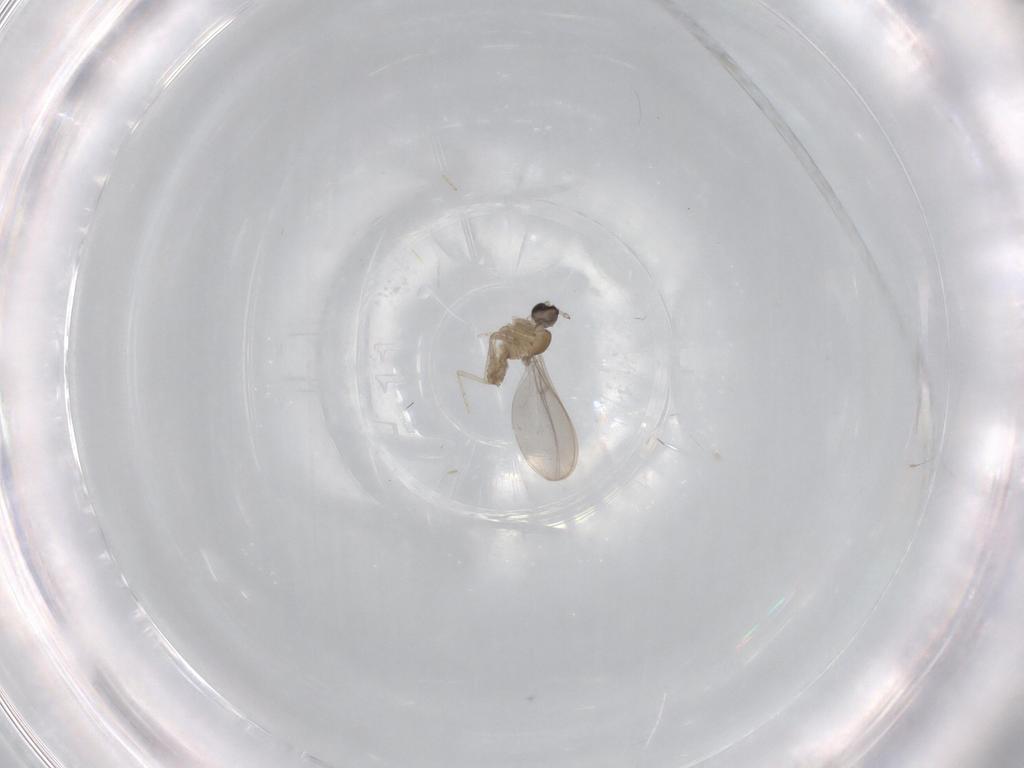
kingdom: Animalia
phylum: Arthropoda
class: Insecta
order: Diptera
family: Cecidomyiidae
